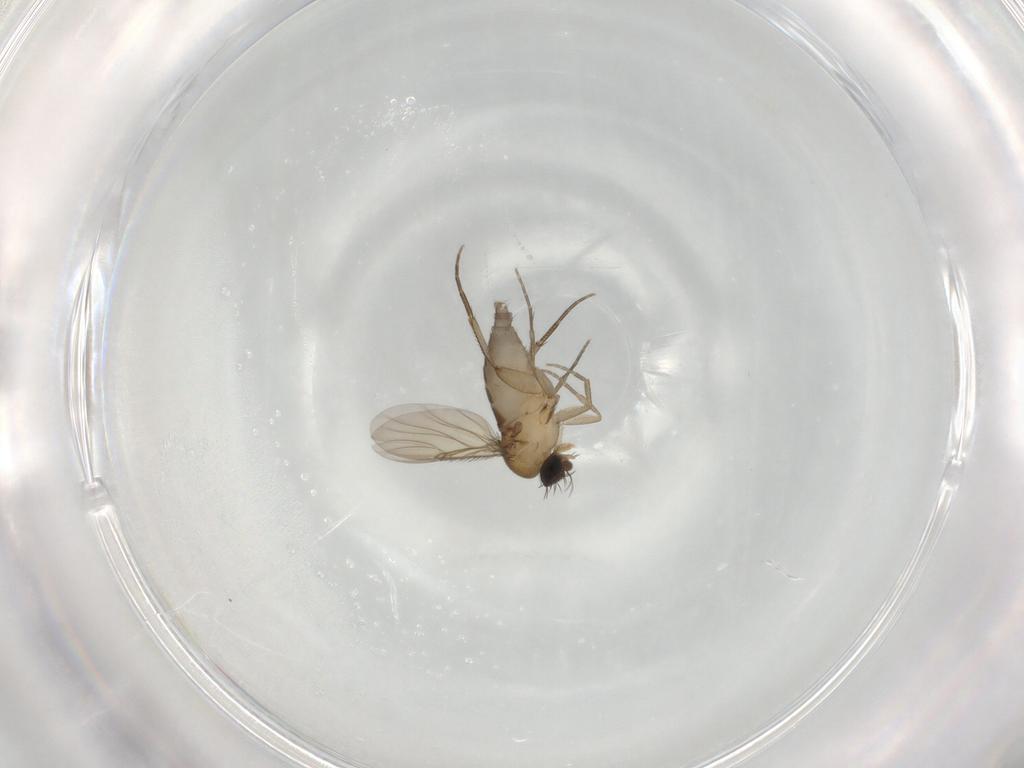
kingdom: Animalia
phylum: Arthropoda
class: Insecta
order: Diptera
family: Phoridae
